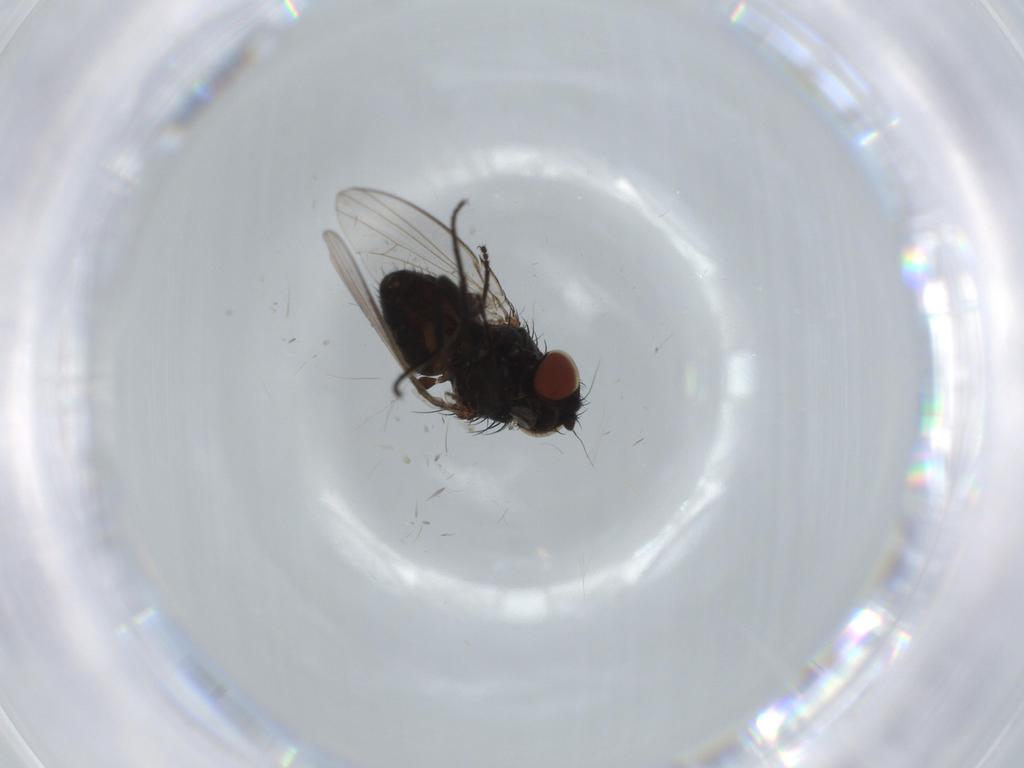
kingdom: Animalia
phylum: Arthropoda
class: Insecta
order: Diptera
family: Milichiidae
